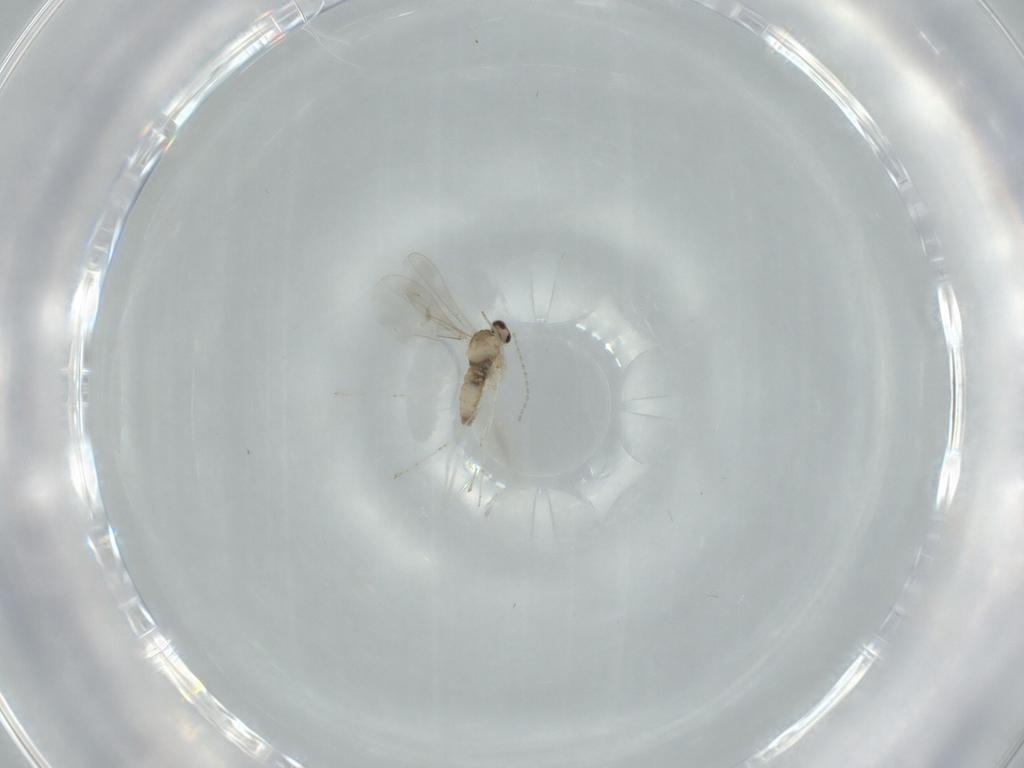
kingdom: Animalia
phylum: Arthropoda
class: Insecta
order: Diptera
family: Cecidomyiidae
